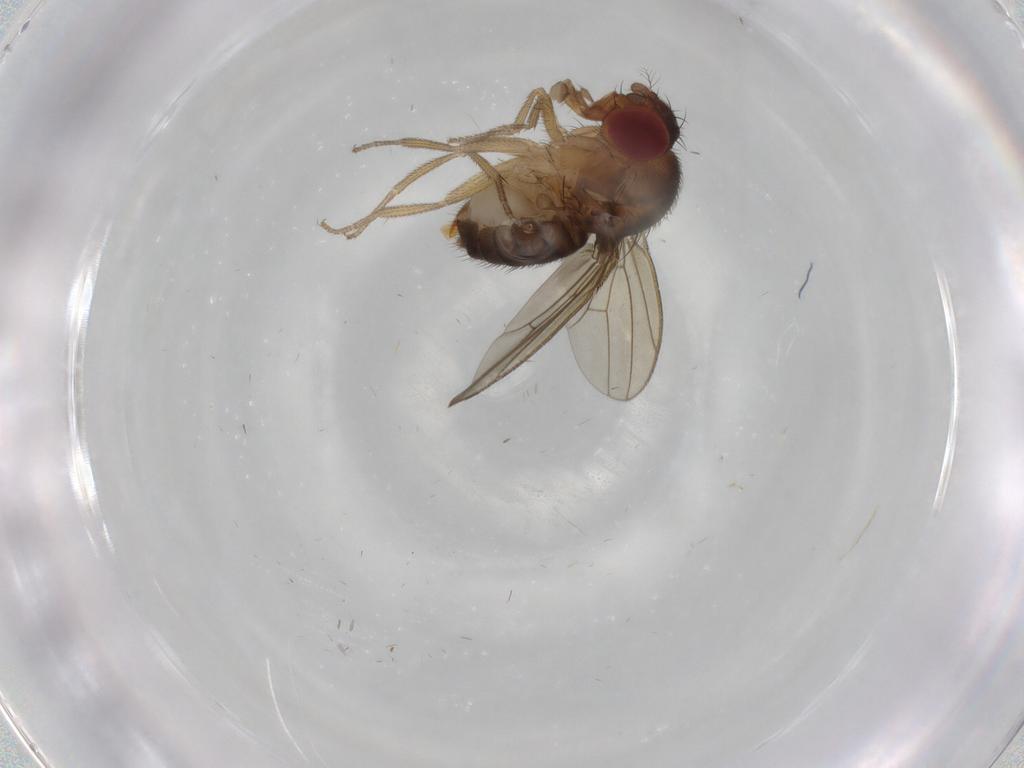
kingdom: Animalia
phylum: Arthropoda
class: Insecta
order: Diptera
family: Drosophilidae
